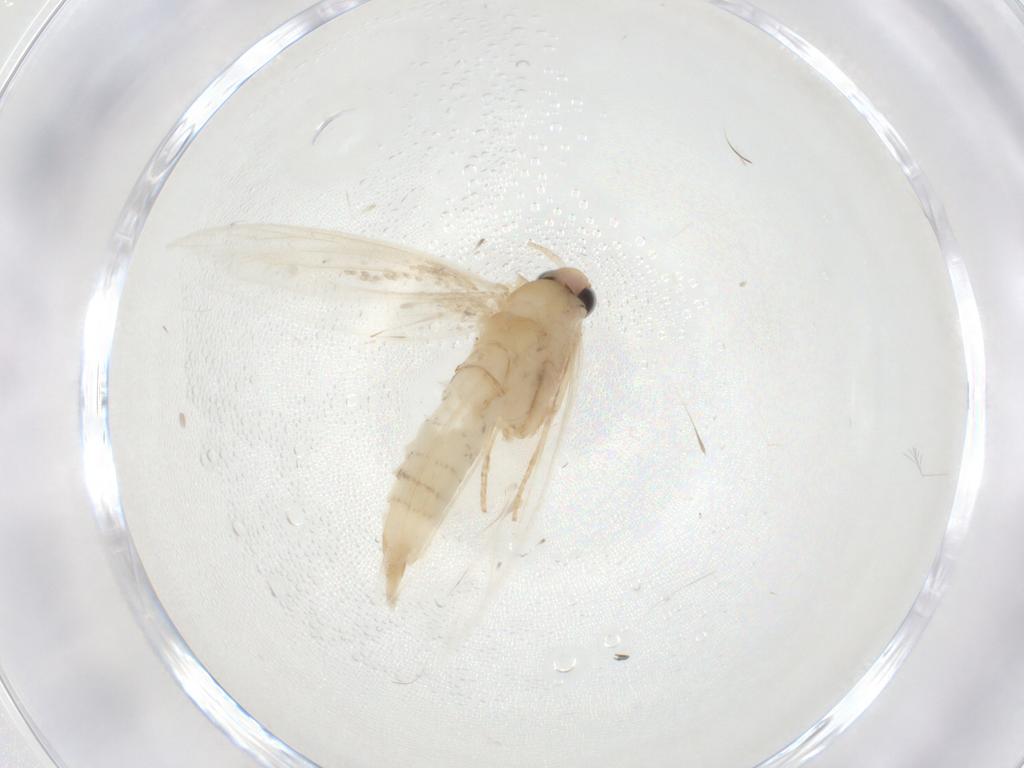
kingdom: Animalia
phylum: Arthropoda
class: Insecta
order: Lepidoptera
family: Tineidae
